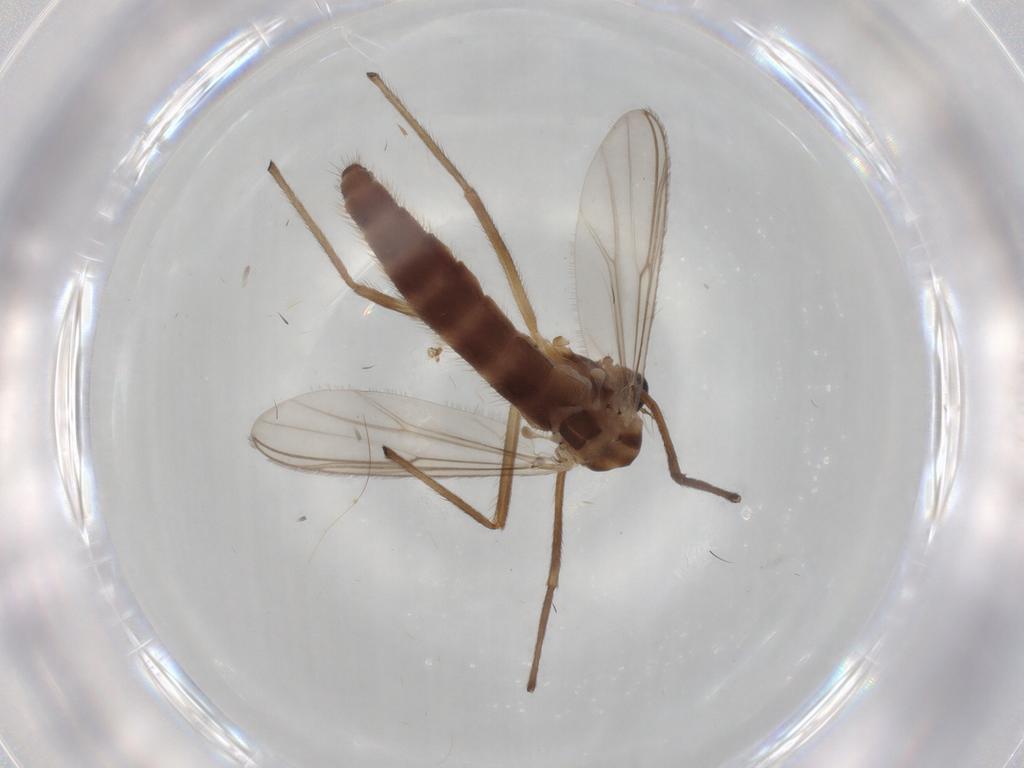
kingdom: Animalia
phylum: Arthropoda
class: Insecta
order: Diptera
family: Chironomidae
